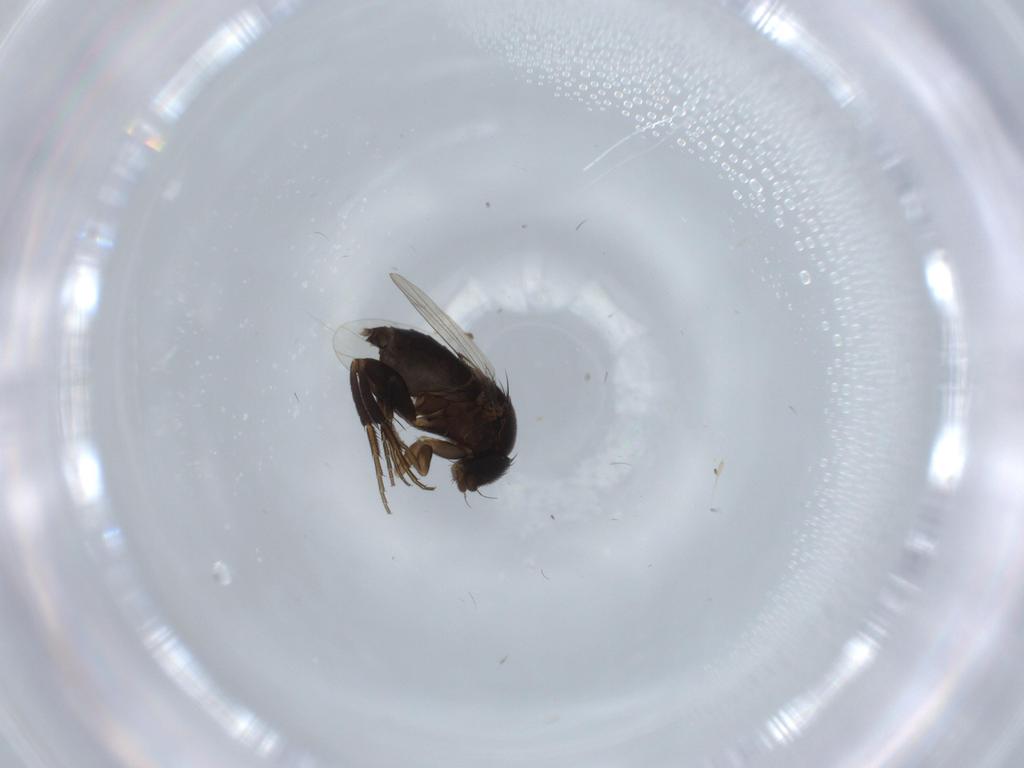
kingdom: Animalia
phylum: Arthropoda
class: Insecta
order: Diptera
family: Phoridae
